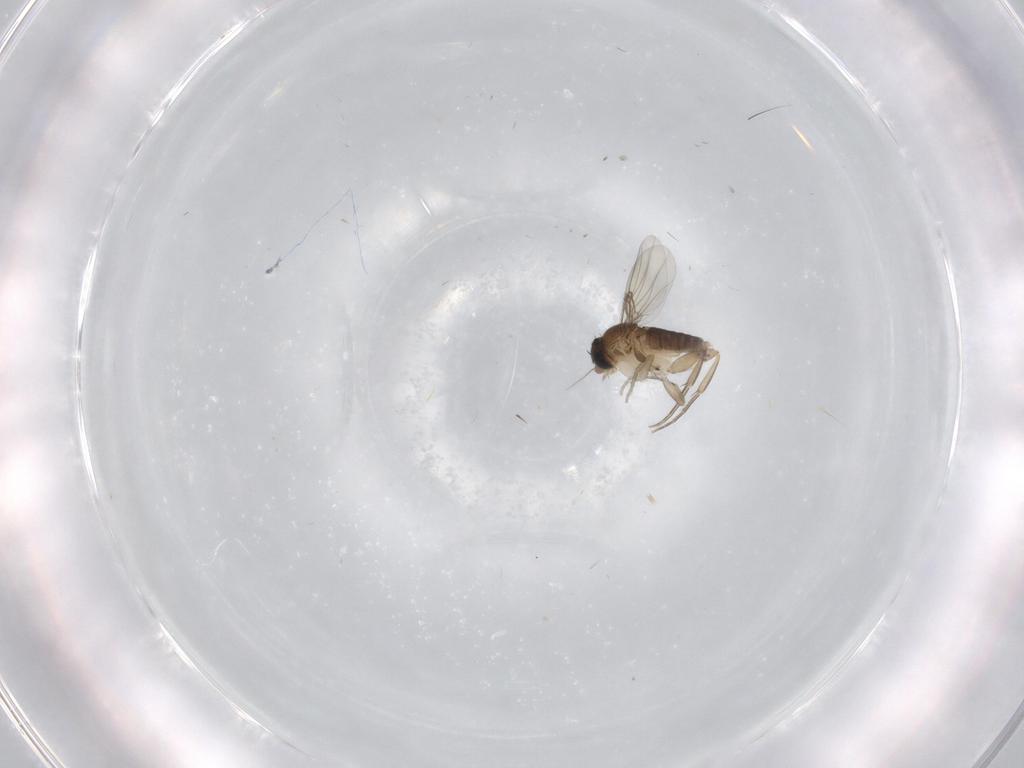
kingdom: Animalia
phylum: Arthropoda
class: Insecta
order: Diptera
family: Phoridae
